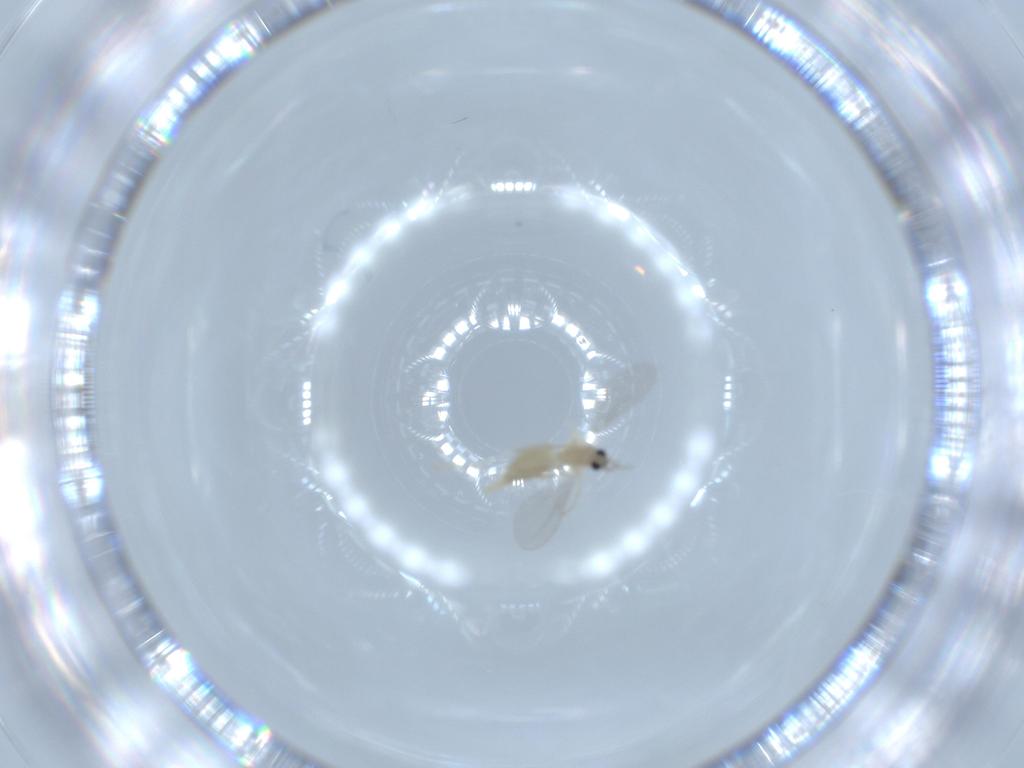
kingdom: Animalia
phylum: Arthropoda
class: Insecta
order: Diptera
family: Cecidomyiidae
